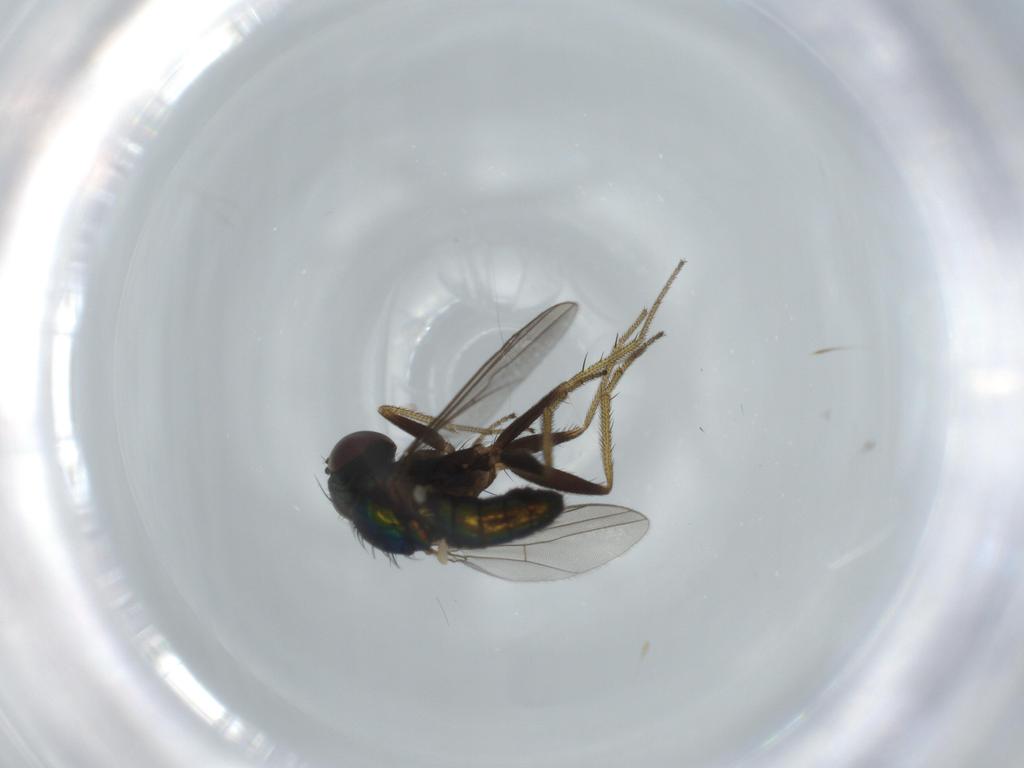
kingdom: Animalia
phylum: Arthropoda
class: Insecta
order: Diptera
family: Dolichopodidae
